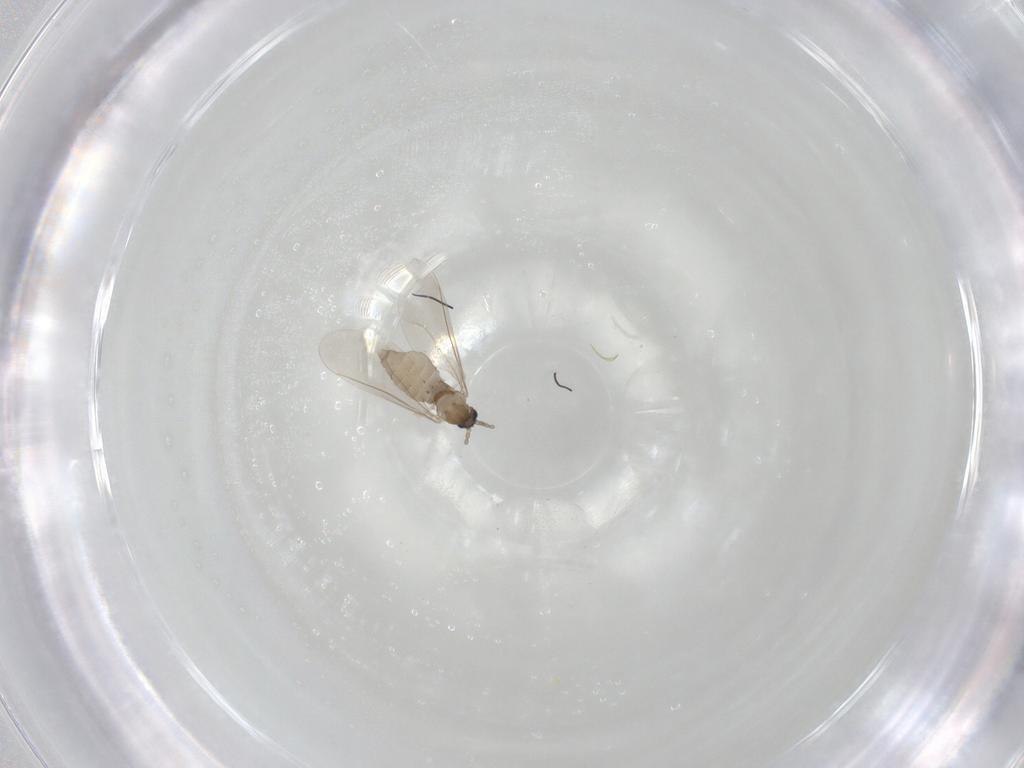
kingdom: Animalia
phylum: Arthropoda
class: Insecta
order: Diptera
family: Cecidomyiidae
